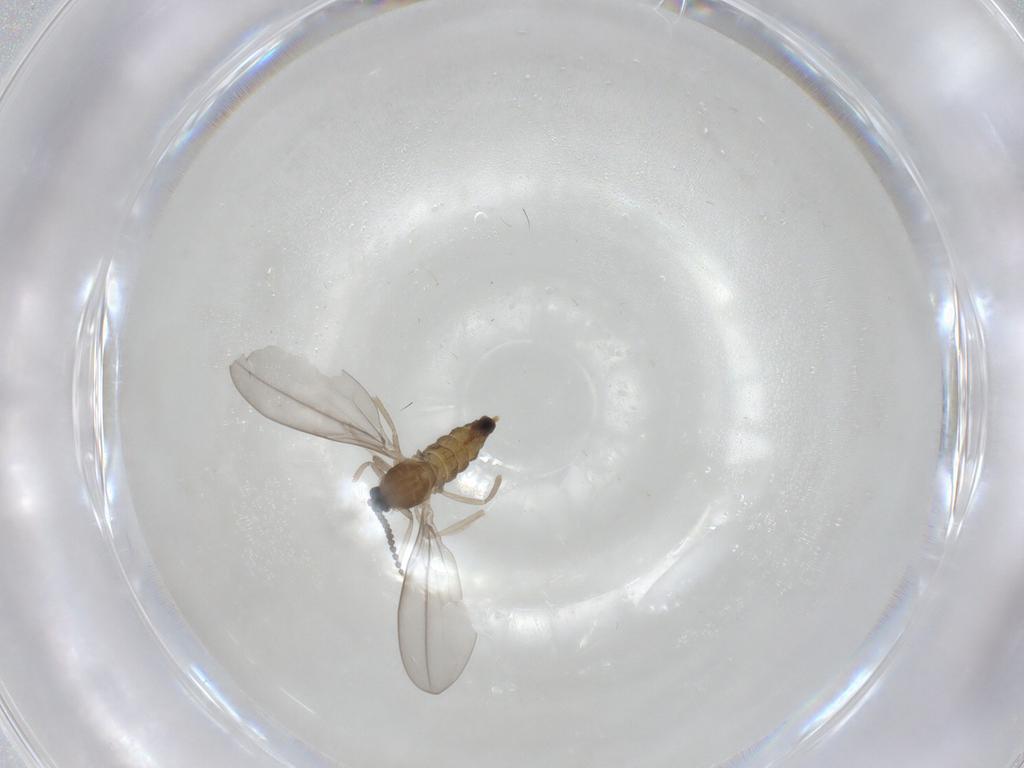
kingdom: Animalia
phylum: Arthropoda
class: Insecta
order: Diptera
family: Cecidomyiidae
